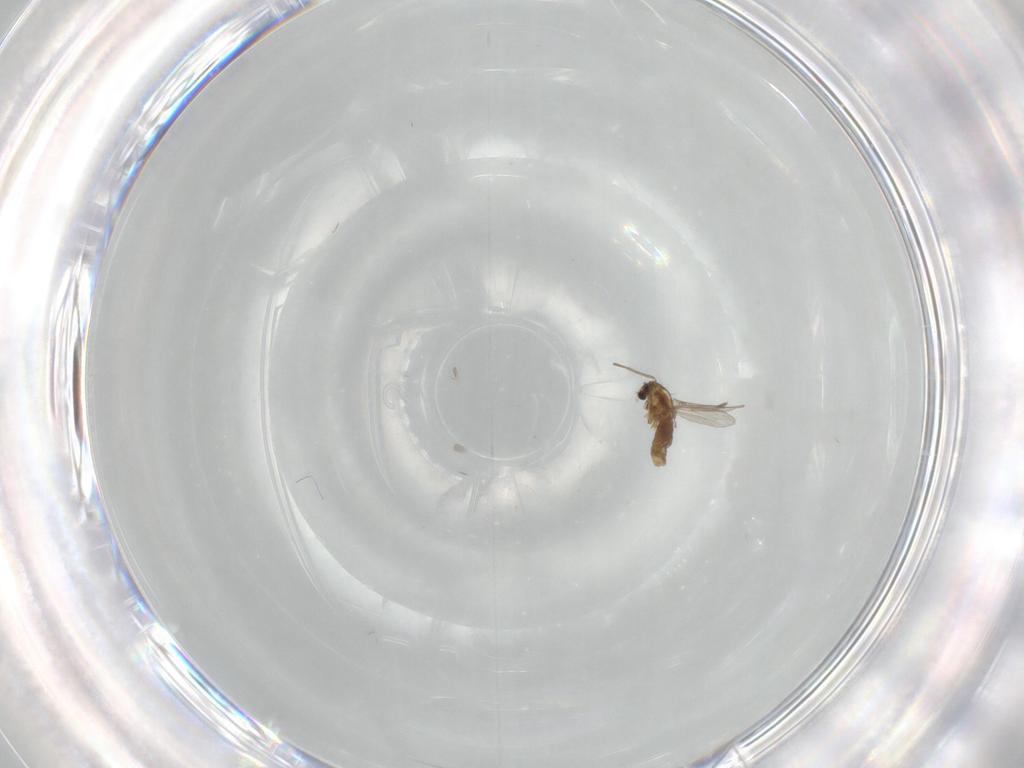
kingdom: Animalia
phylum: Arthropoda
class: Insecta
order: Diptera
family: Chironomidae
